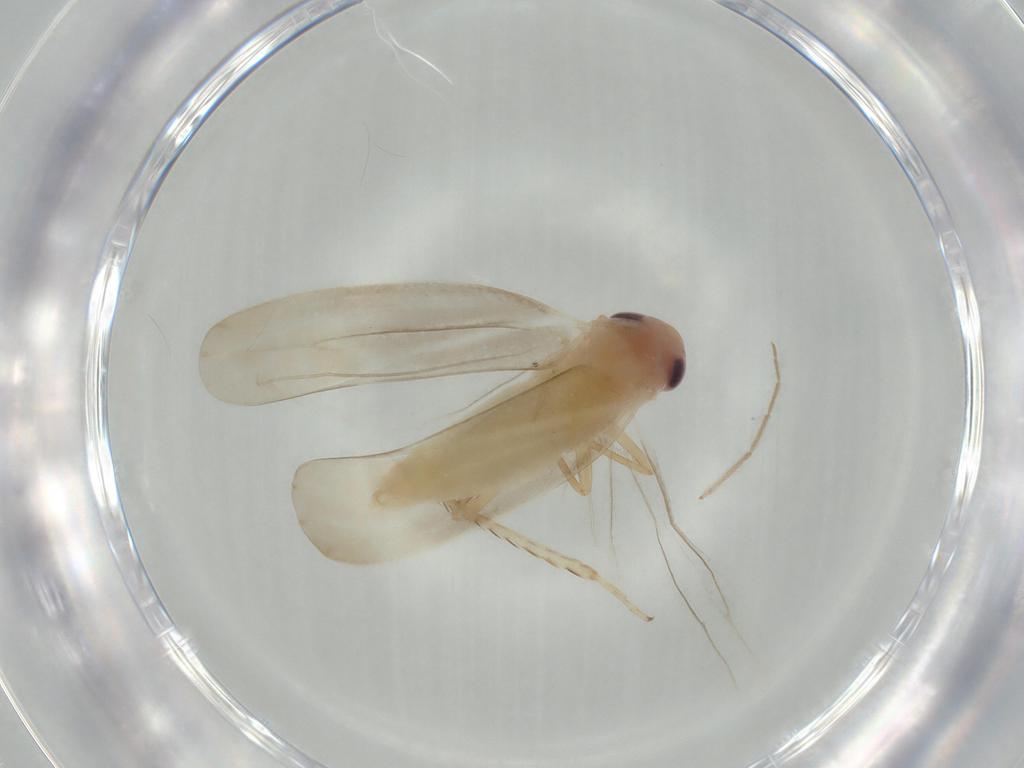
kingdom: Animalia
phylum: Arthropoda
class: Insecta
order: Hemiptera
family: Cicadellidae
